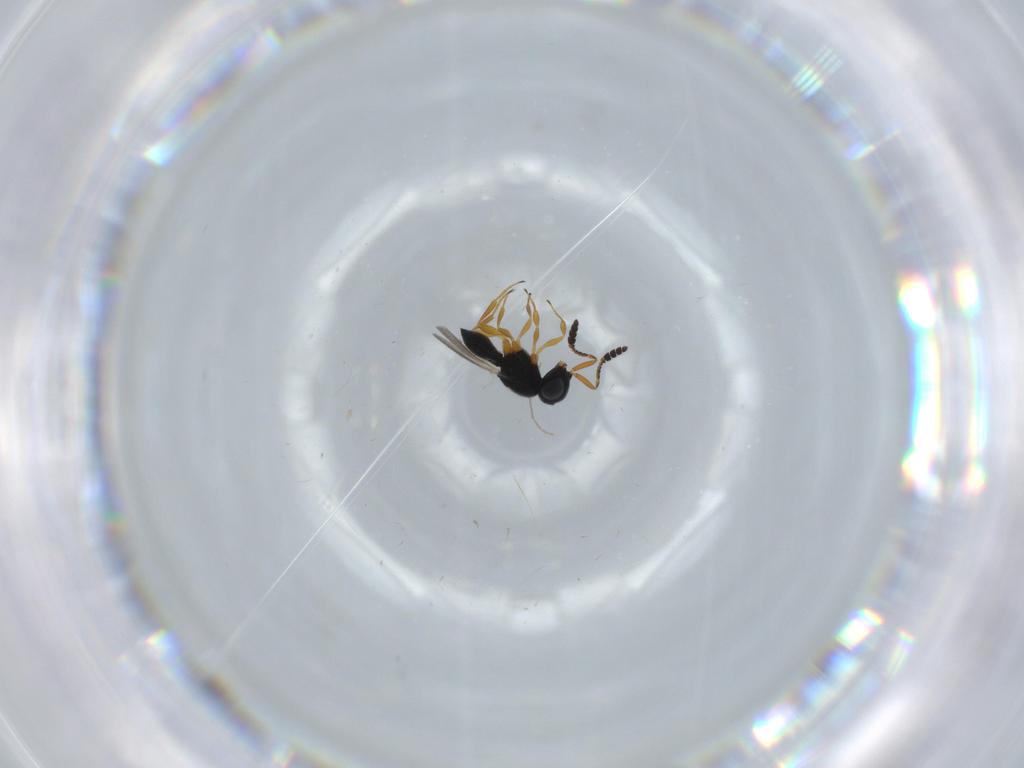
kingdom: Animalia
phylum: Arthropoda
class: Insecta
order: Hymenoptera
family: Scelionidae
